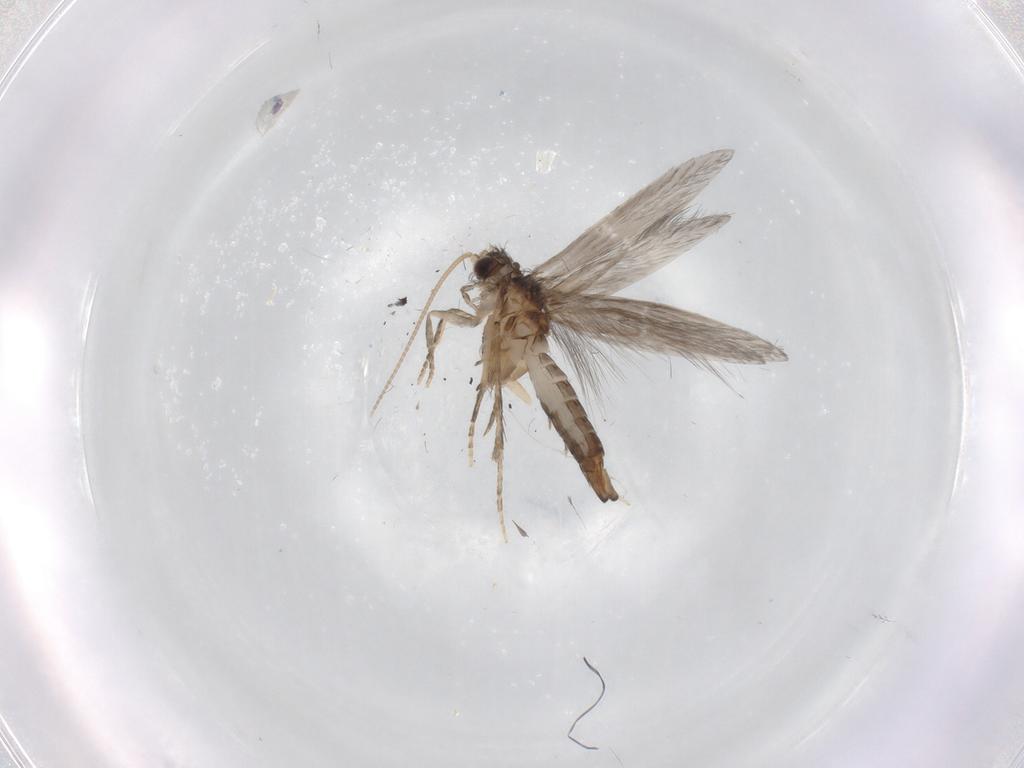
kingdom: Animalia
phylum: Arthropoda
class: Insecta
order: Trichoptera
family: Hydroptilidae
